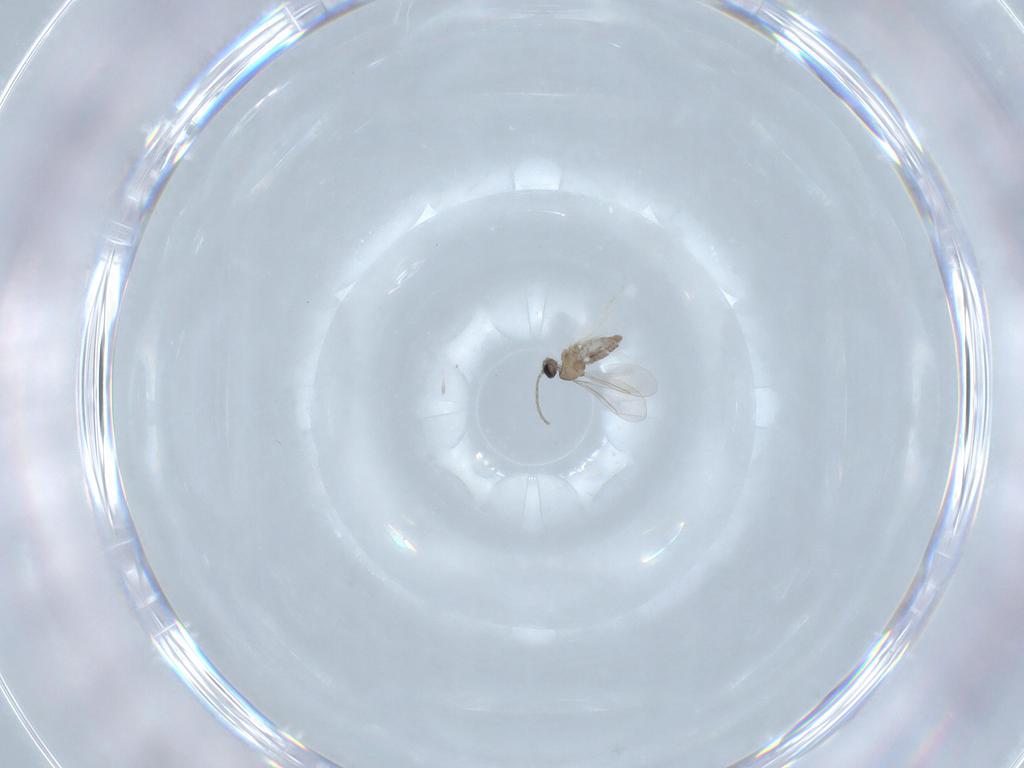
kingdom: Animalia
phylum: Arthropoda
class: Insecta
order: Diptera
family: Cecidomyiidae
